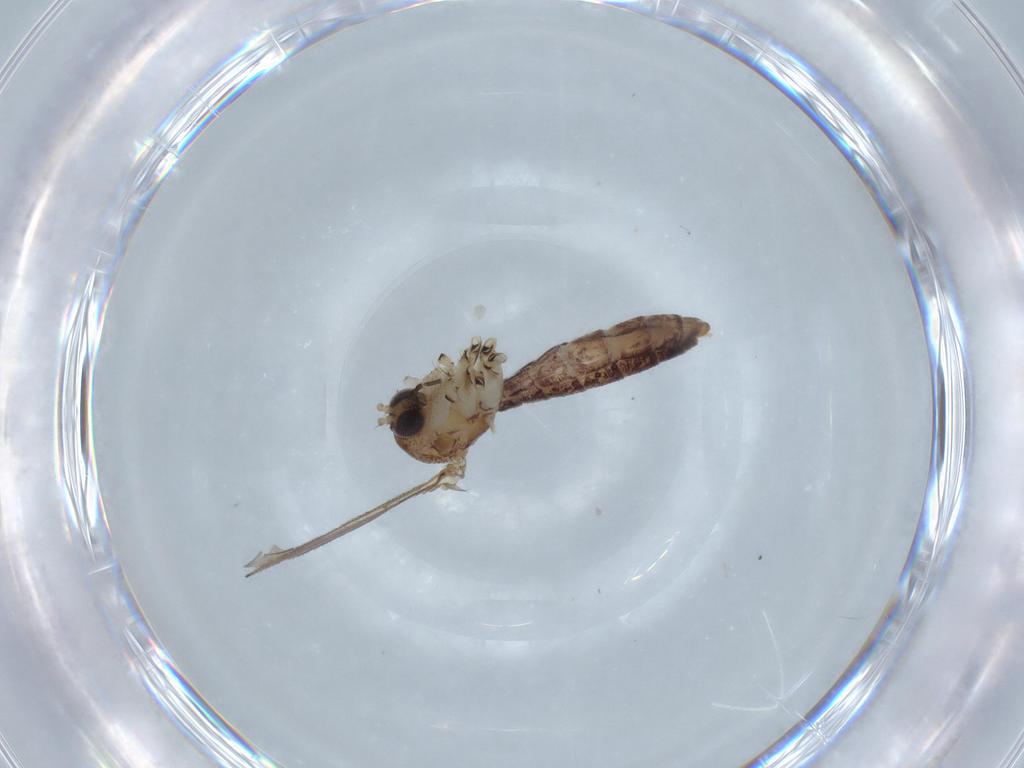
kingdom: Animalia
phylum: Arthropoda
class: Insecta
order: Diptera
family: Mycetophilidae
